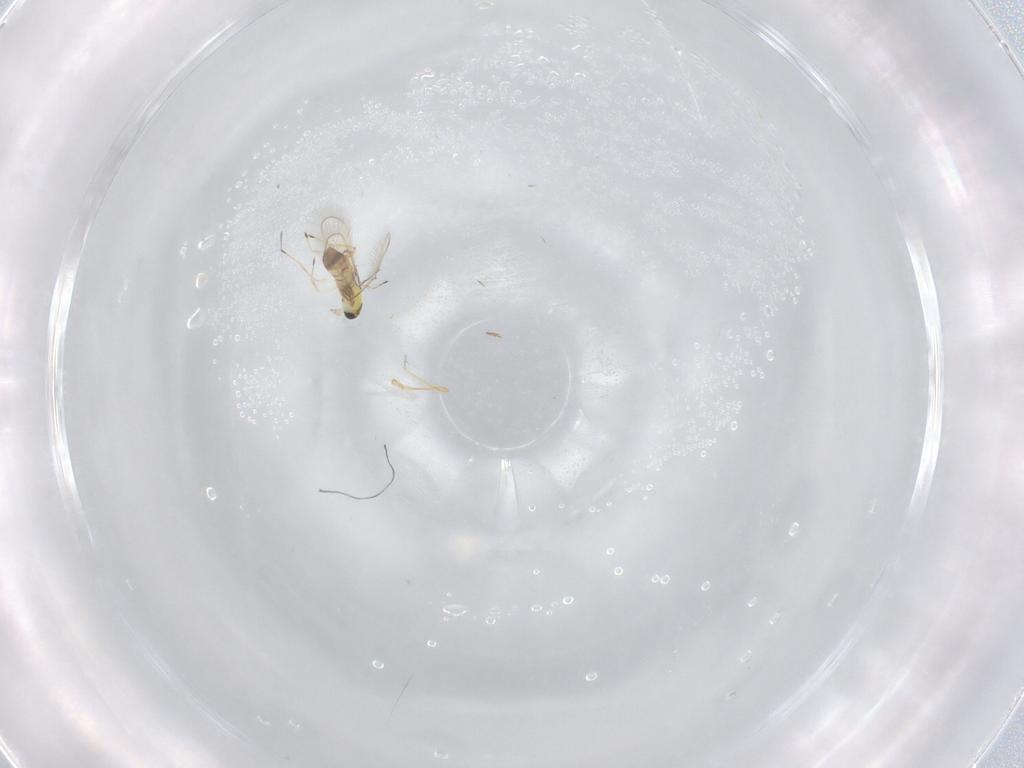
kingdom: Animalia
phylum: Arthropoda
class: Insecta
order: Hymenoptera
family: Trichogrammatidae
